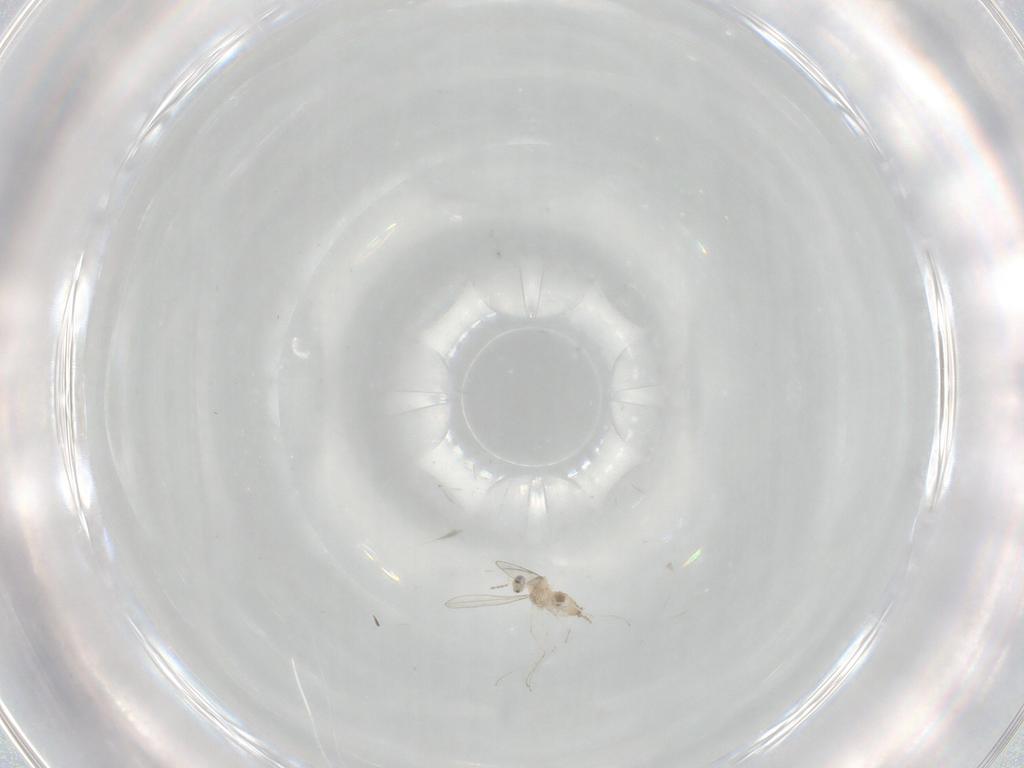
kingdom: Animalia
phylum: Arthropoda
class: Insecta
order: Diptera
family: Cecidomyiidae
